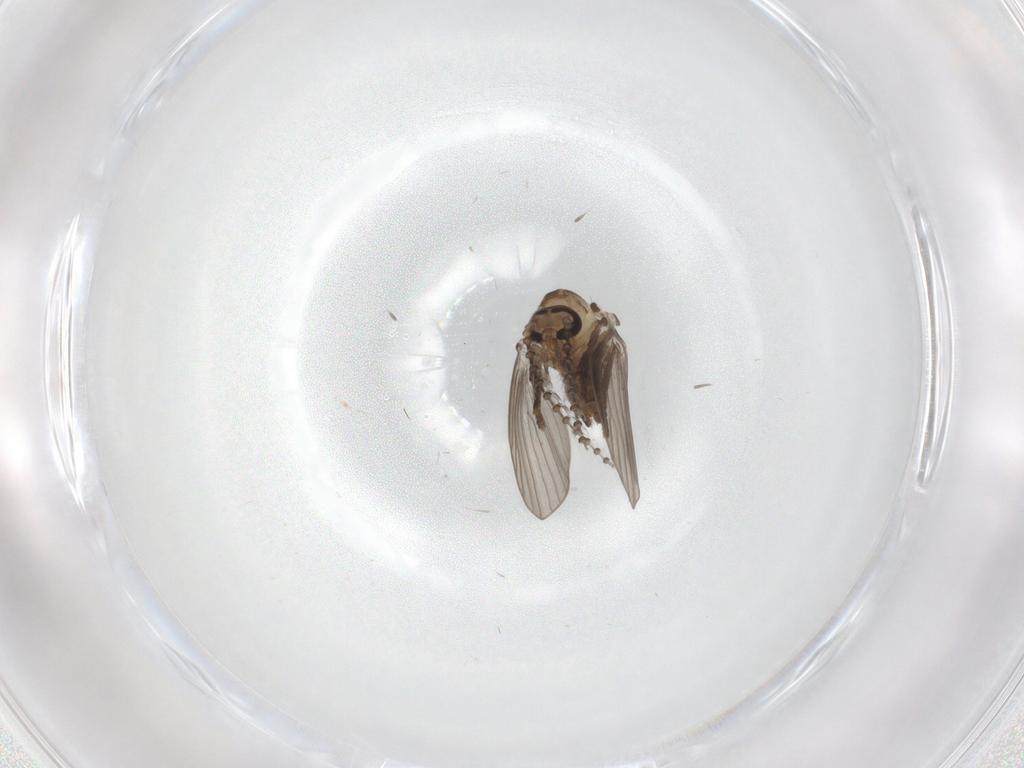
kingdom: Animalia
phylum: Arthropoda
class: Insecta
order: Diptera
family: Psychodidae
